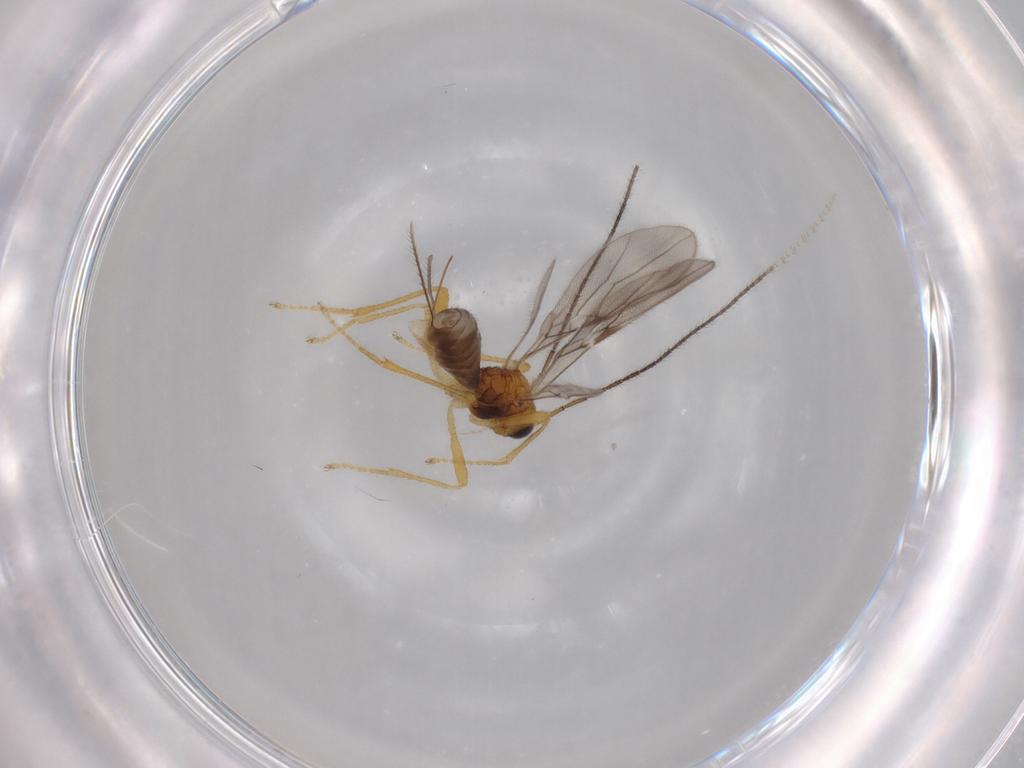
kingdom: Animalia
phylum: Arthropoda
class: Insecta
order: Hymenoptera
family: Braconidae
